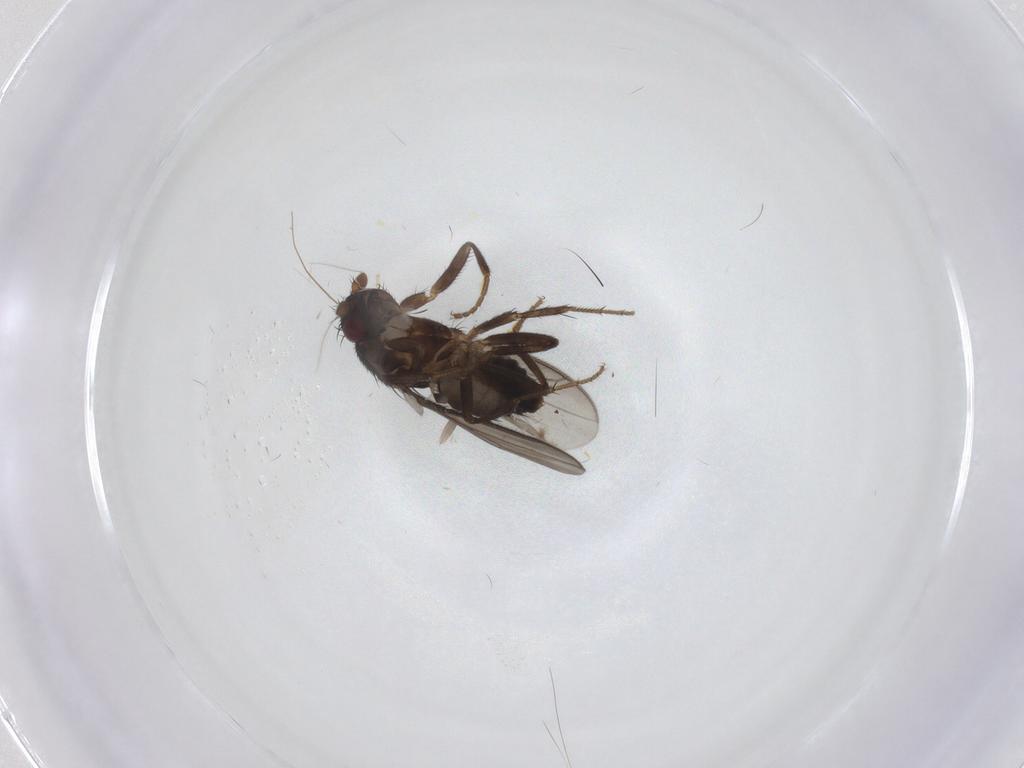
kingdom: Animalia
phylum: Arthropoda
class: Insecta
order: Diptera
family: Sphaeroceridae
